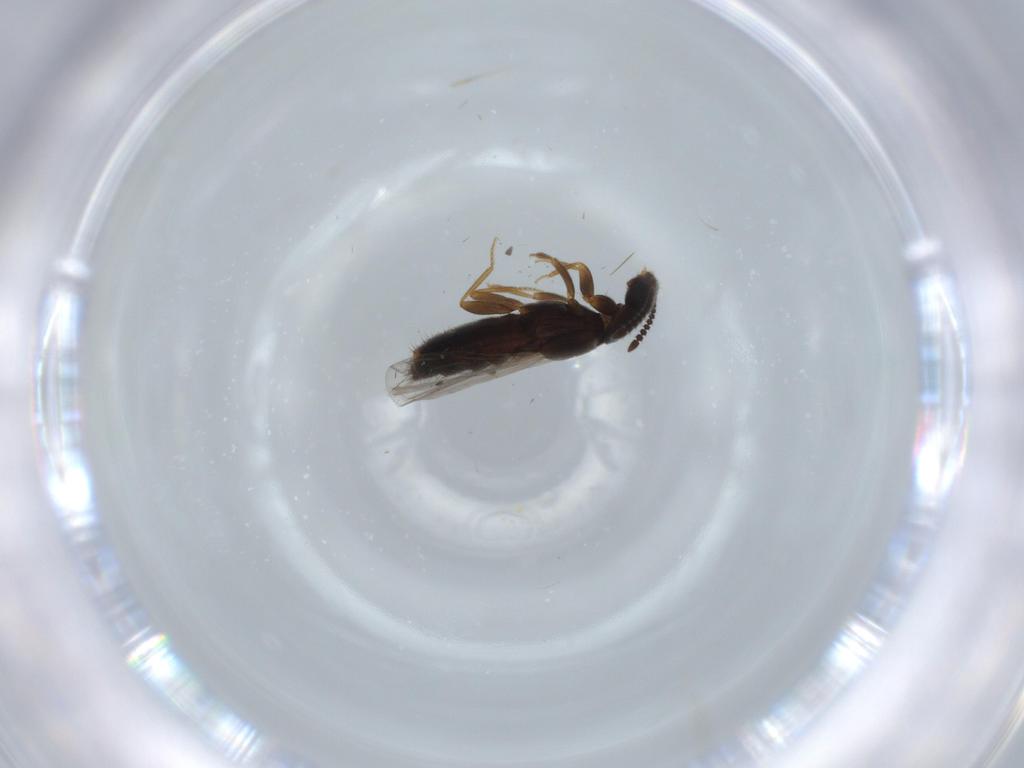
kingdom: Animalia
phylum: Arthropoda
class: Insecta
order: Coleoptera
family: Staphylinidae
